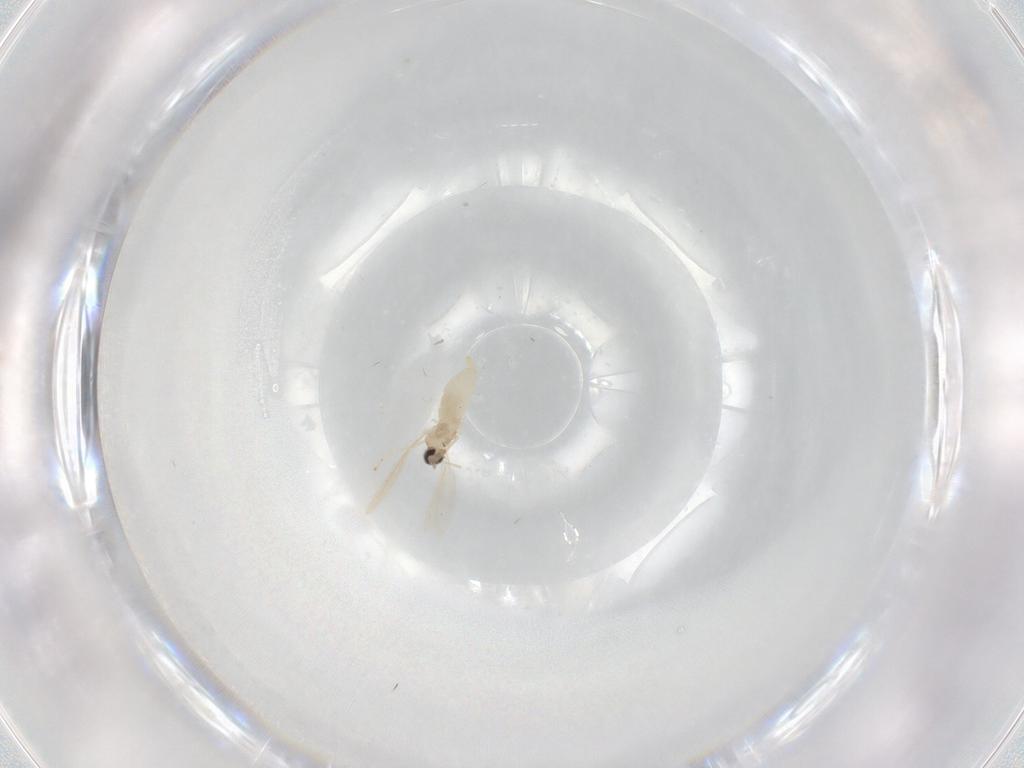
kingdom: Animalia
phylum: Arthropoda
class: Insecta
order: Diptera
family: Cecidomyiidae
